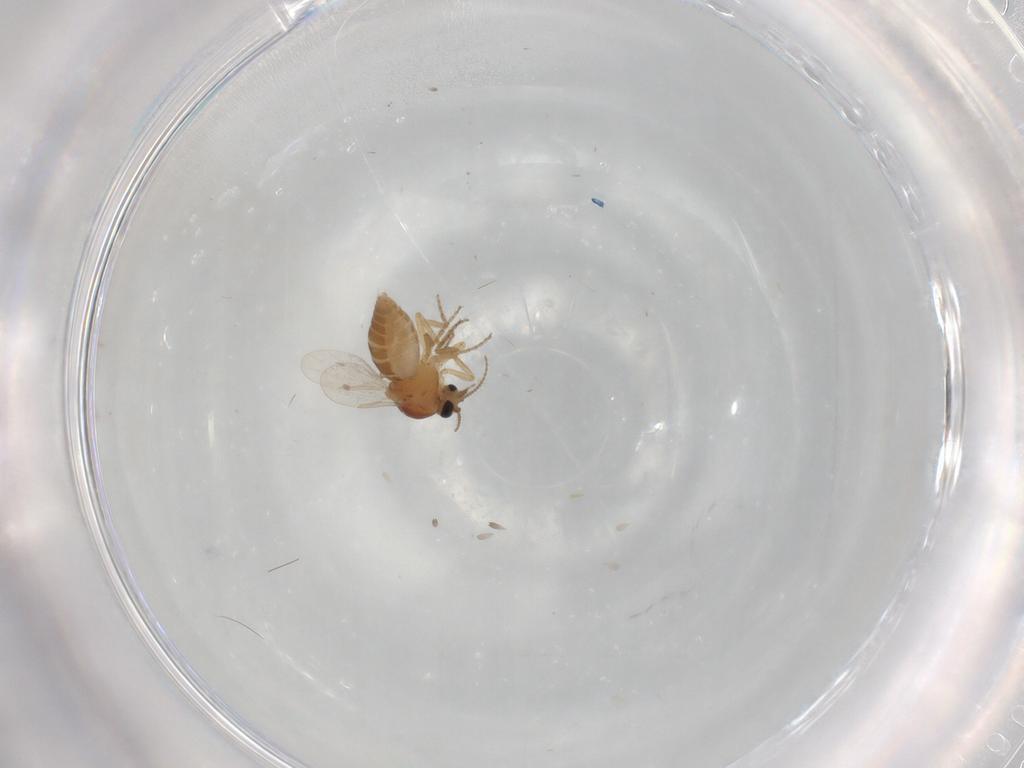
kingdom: Animalia
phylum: Arthropoda
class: Insecta
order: Diptera
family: Ceratopogonidae
